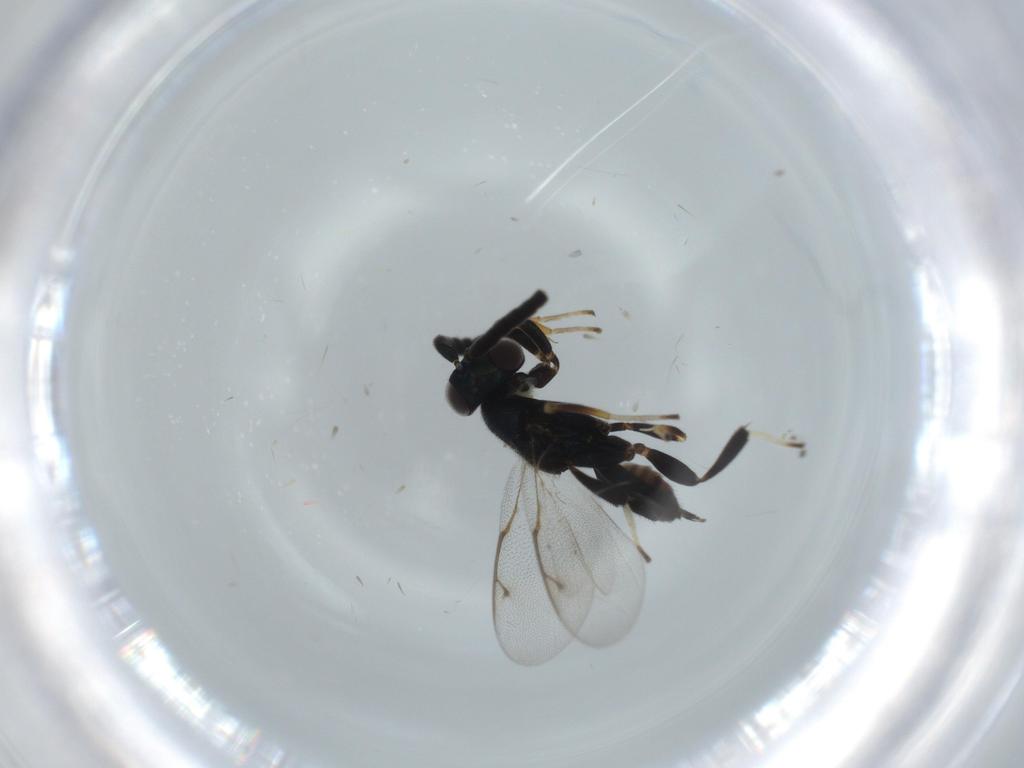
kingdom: Animalia
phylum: Arthropoda
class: Insecta
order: Hymenoptera
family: Eupelmidae
